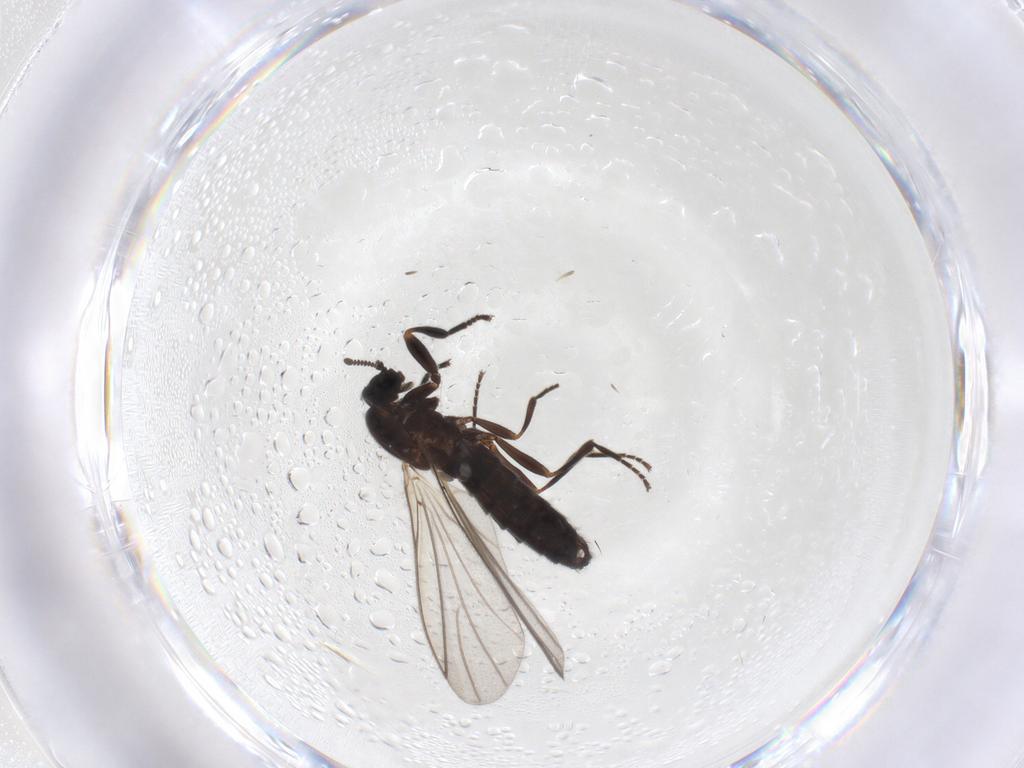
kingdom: Animalia
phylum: Arthropoda
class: Insecta
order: Diptera
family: Scatopsidae
